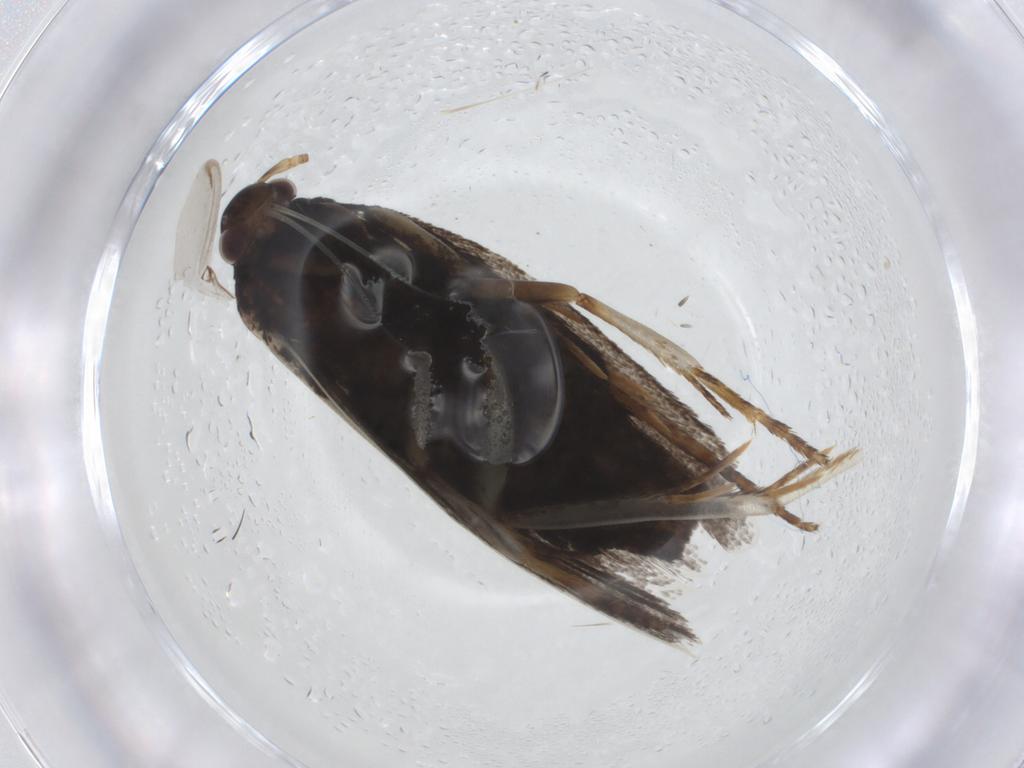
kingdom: Animalia
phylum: Arthropoda
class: Insecta
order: Lepidoptera
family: Lecithoceridae
